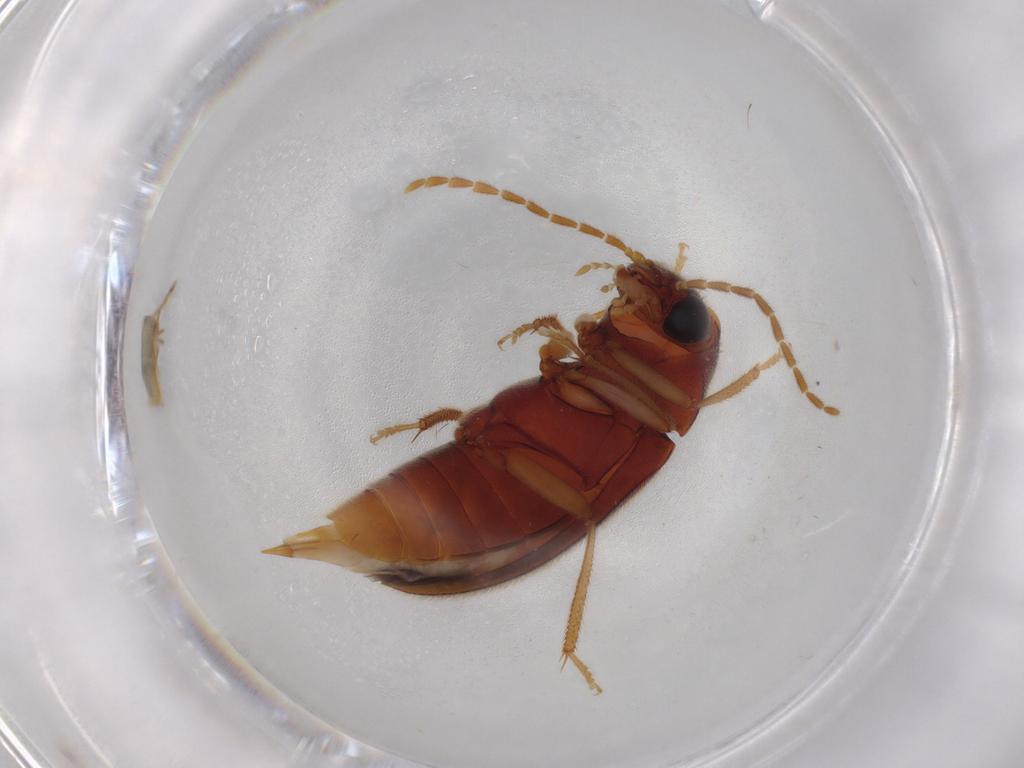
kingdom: Animalia
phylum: Arthropoda
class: Insecta
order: Coleoptera
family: Ptilodactylidae
